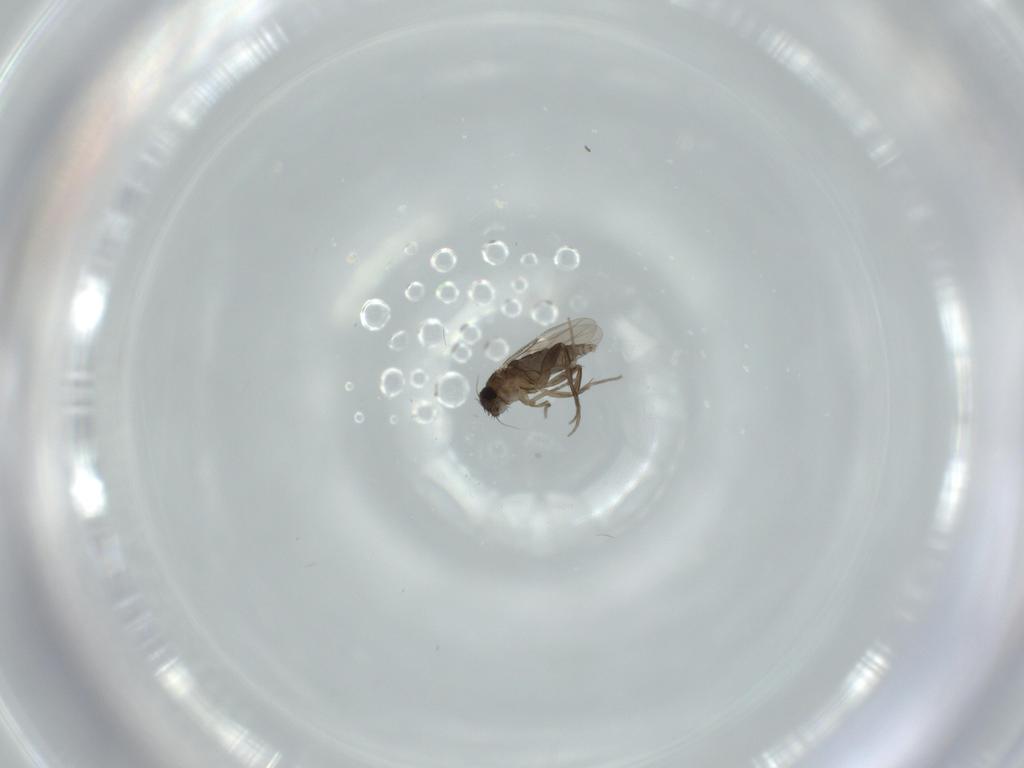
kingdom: Animalia
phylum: Arthropoda
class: Insecta
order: Diptera
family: Phoridae
